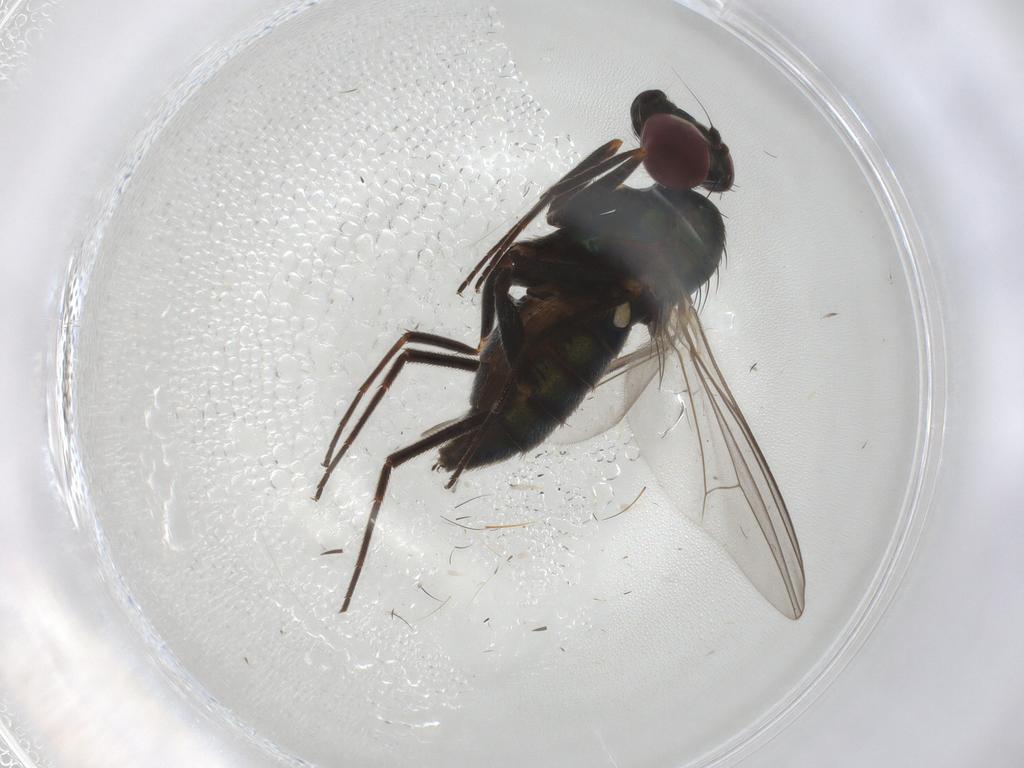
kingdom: Animalia
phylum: Arthropoda
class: Insecta
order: Diptera
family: Dolichopodidae
